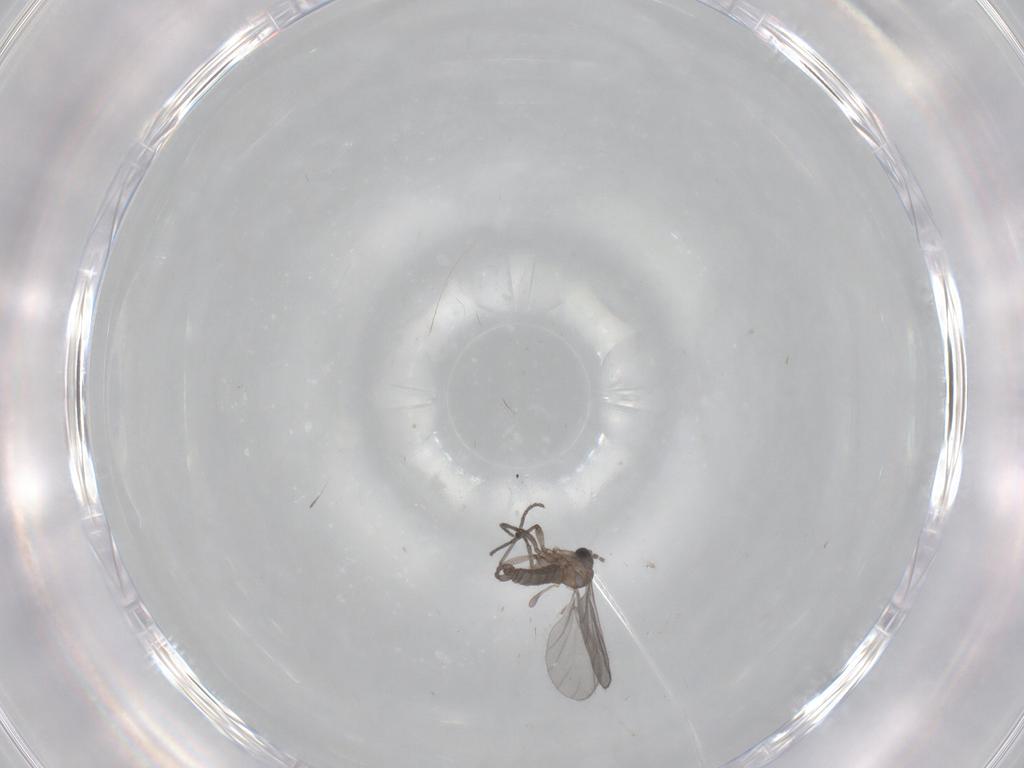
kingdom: Animalia
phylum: Arthropoda
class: Insecta
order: Diptera
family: Sciaridae
